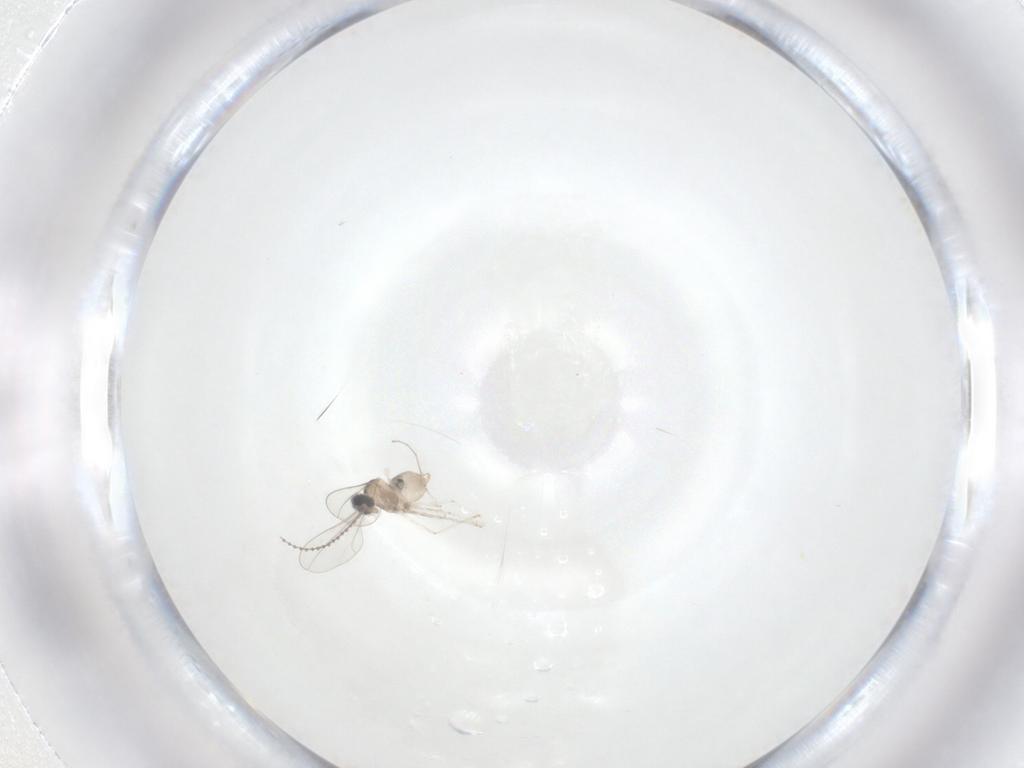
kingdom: Animalia
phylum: Arthropoda
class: Insecta
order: Diptera
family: Cecidomyiidae
